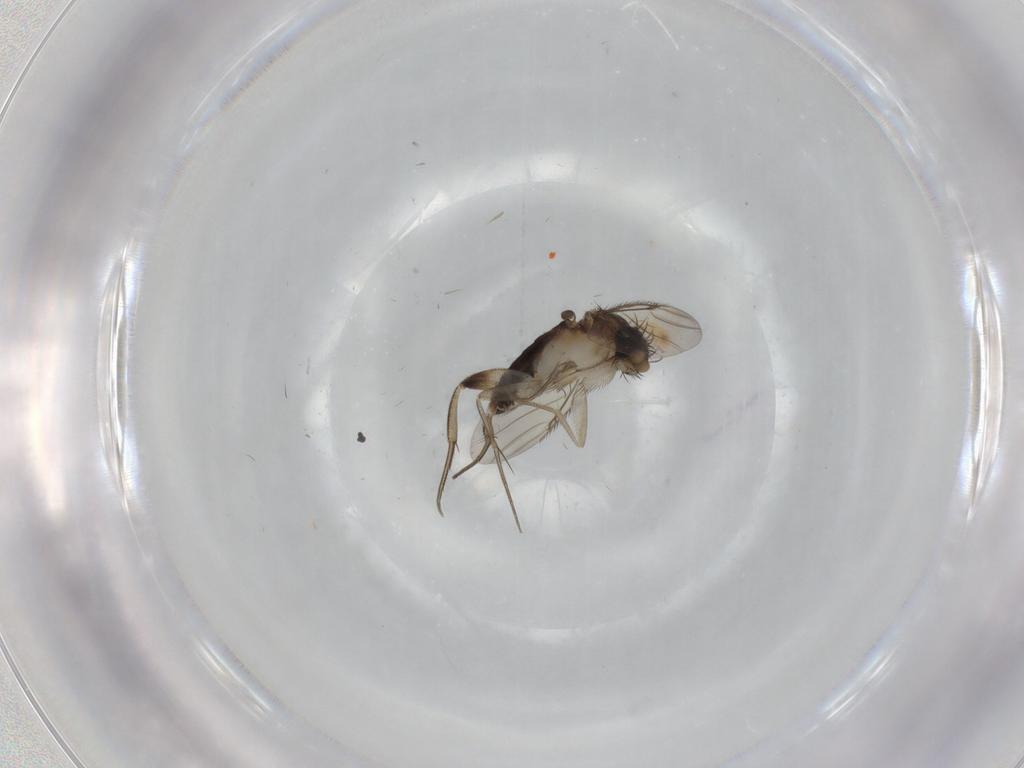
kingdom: Animalia
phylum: Arthropoda
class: Insecta
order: Diptera
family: Phoridae
